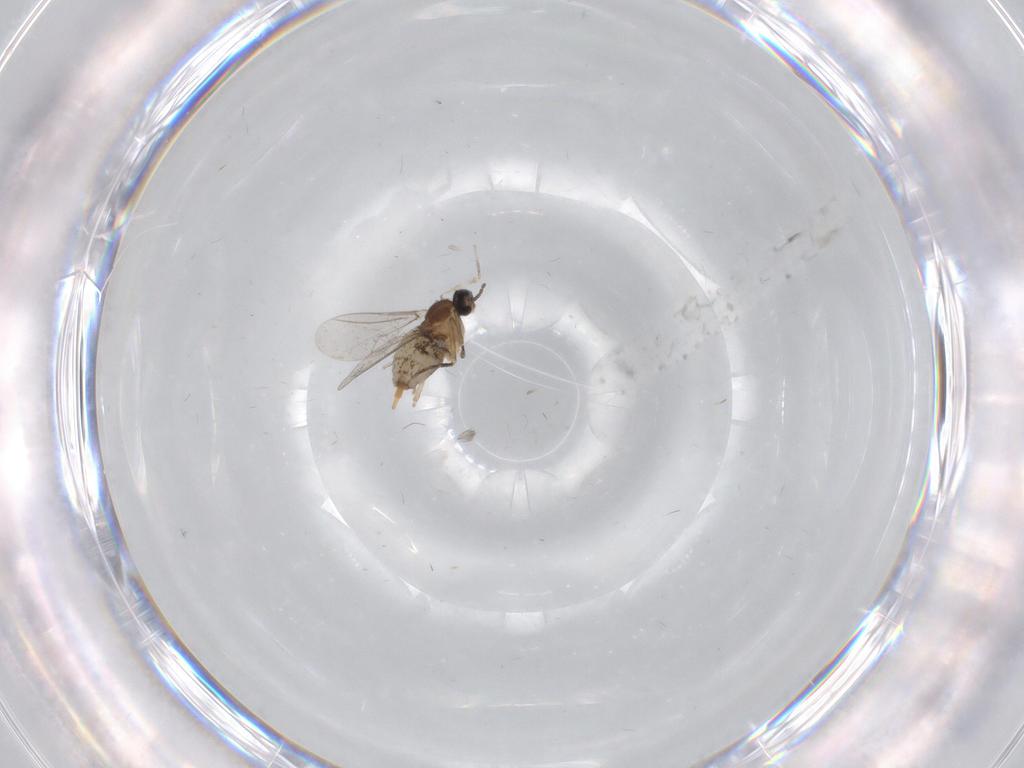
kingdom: Animalia
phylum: Arthropoda
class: Insecta
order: Diptera
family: Cecidomyiidae
